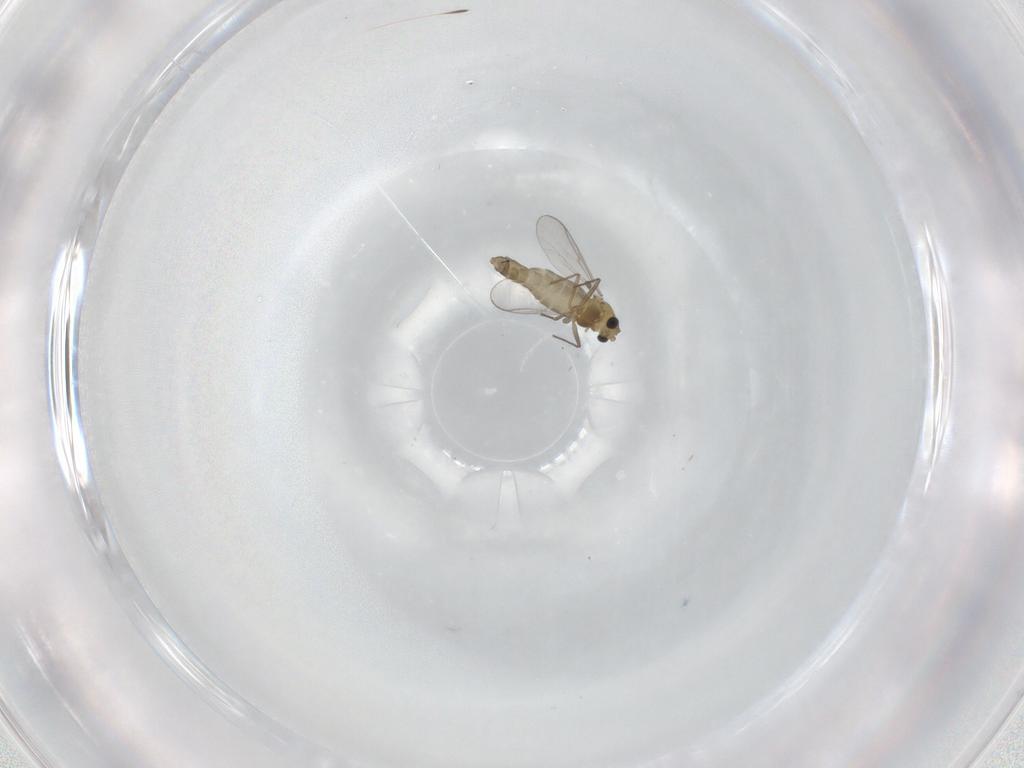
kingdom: Animalia
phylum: Arthropoda
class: Insecta
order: Diptera
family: Chironomidae
